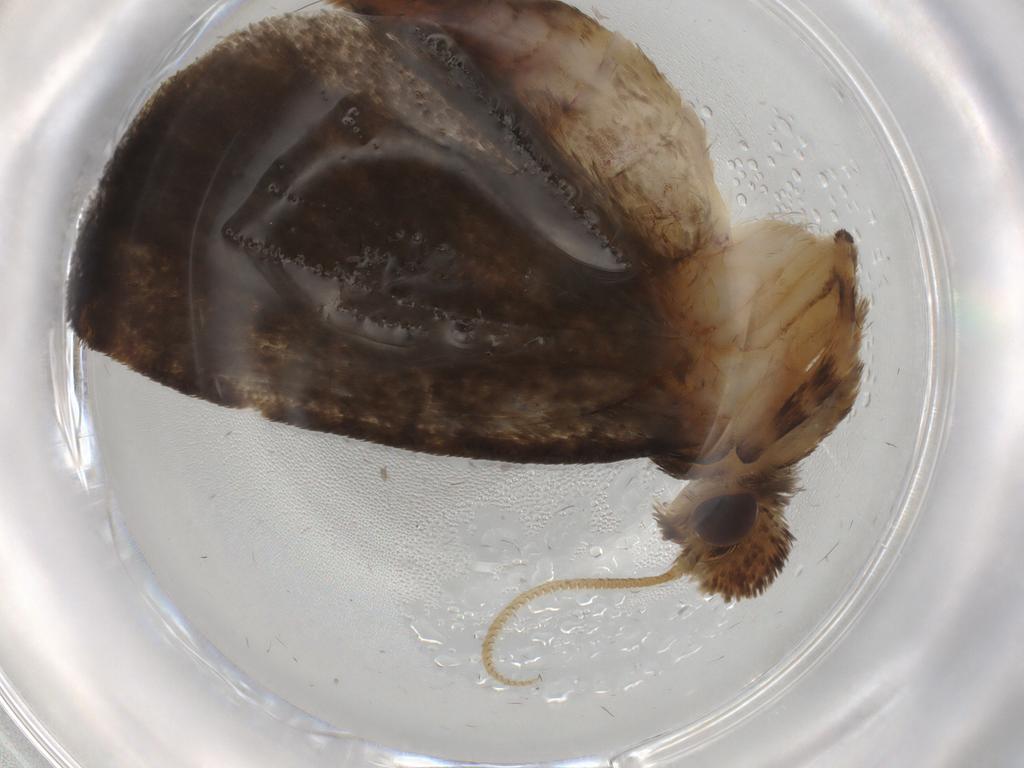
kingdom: Animalia
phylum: Arthropoda
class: Insecta
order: Lepidoptera
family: Tineidae
